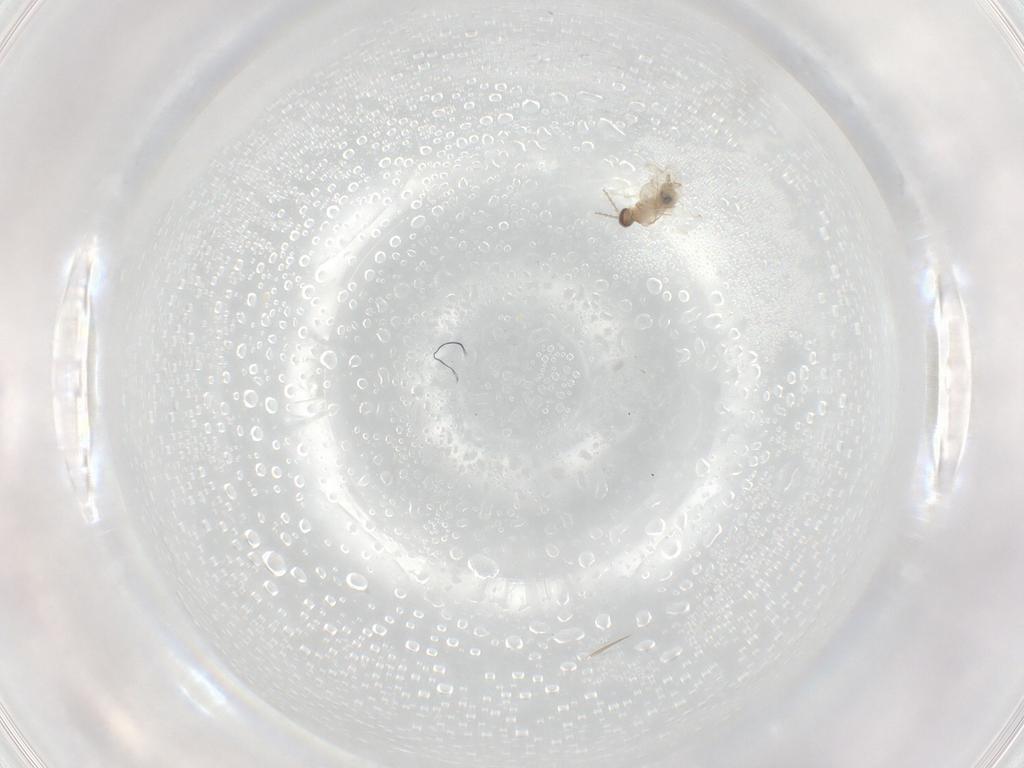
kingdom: Animalia
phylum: Arthropoda
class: Insecta
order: Diptera
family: Cecidomyiidae
